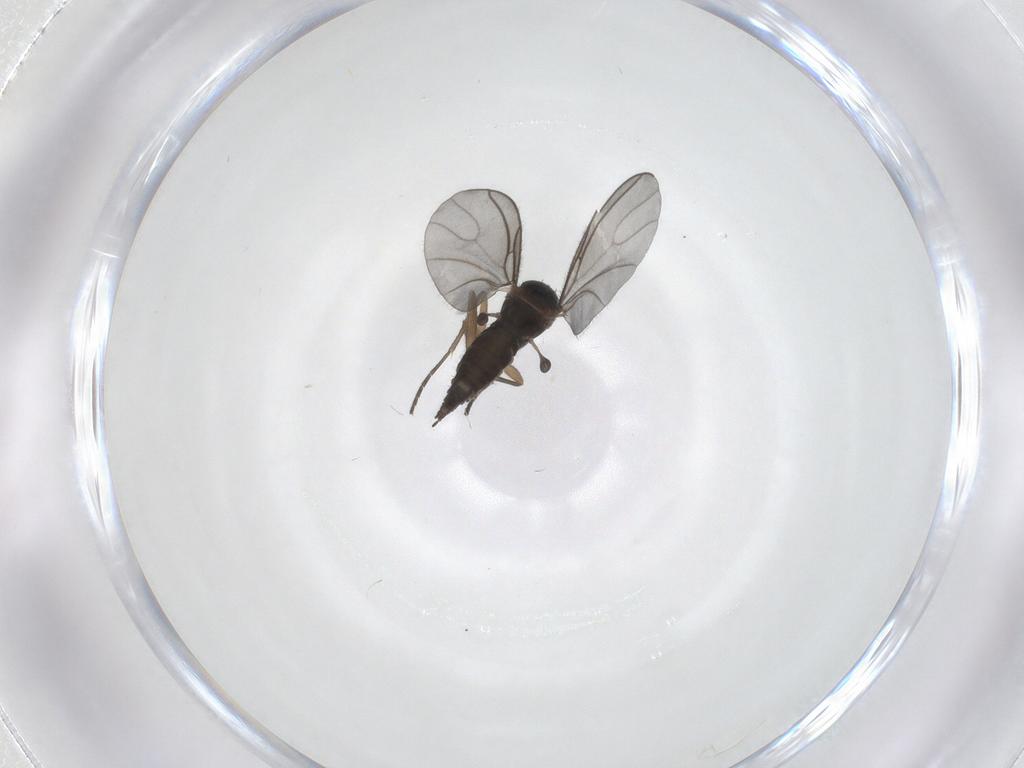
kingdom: Animalia
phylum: Arthropoda
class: Insecta
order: Diptera
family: Sciaridae
